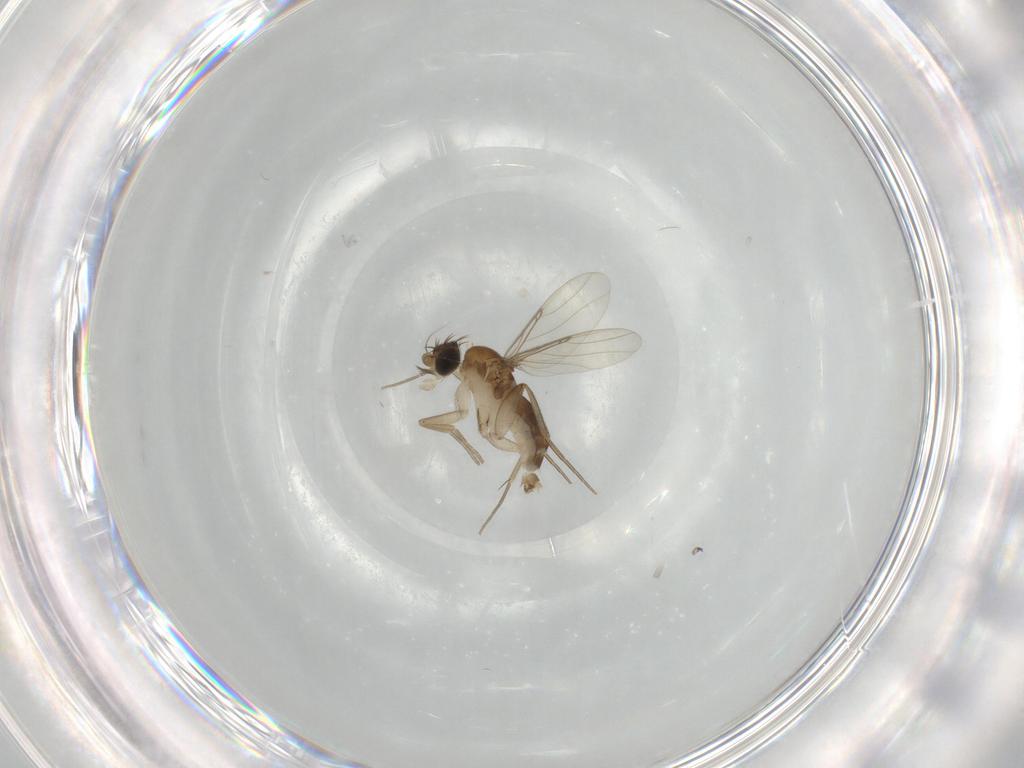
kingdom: Animalia
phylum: Arthropoda
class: Insecta
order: Diptera
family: Phoridae
